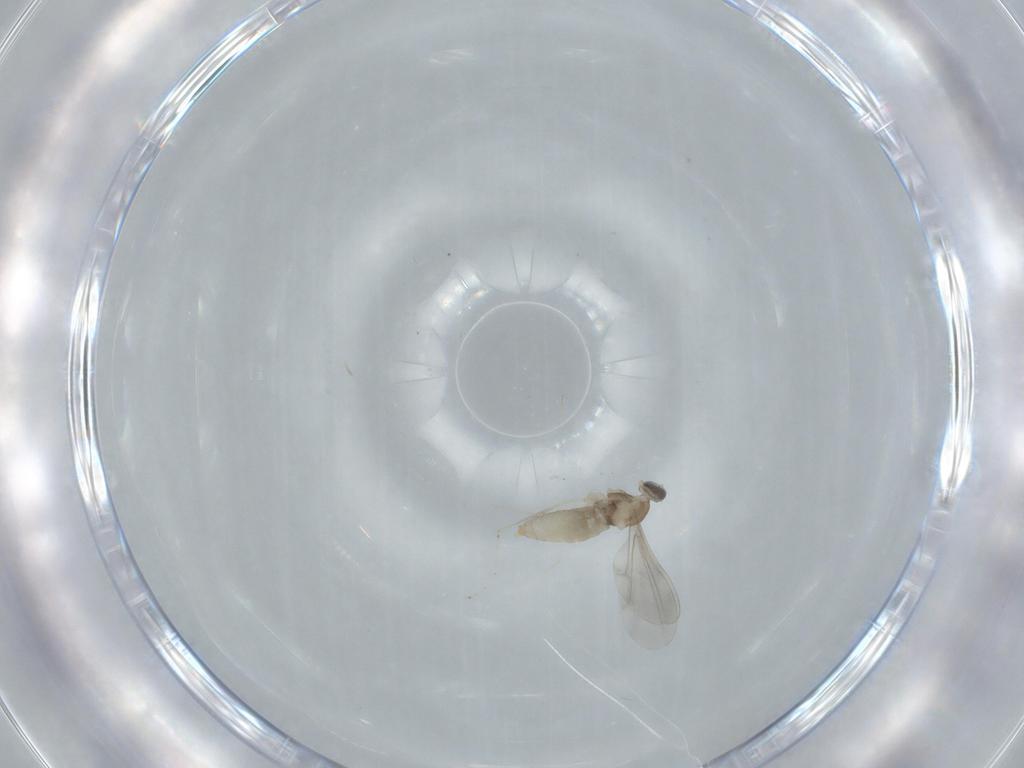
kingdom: Animalia
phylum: Arthropoda
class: Insecta
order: Diptera
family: Cecidomyiidae
